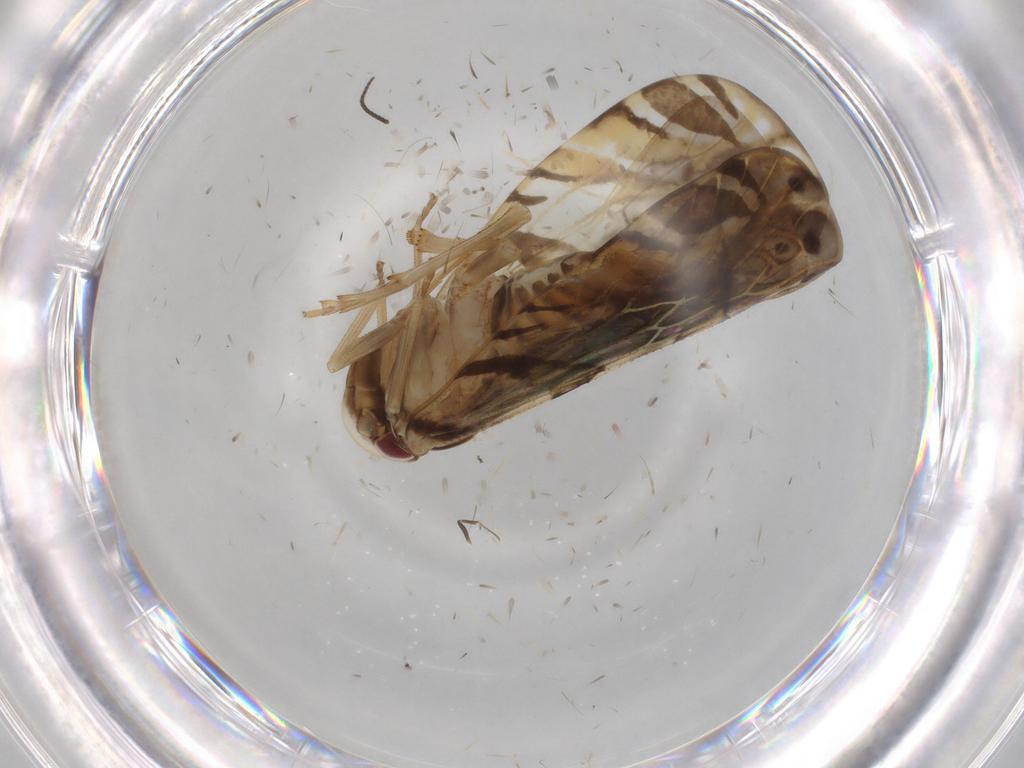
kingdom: Animalia
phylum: Arthropoda
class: Insecta
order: Hemiptera
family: Cixiidae
